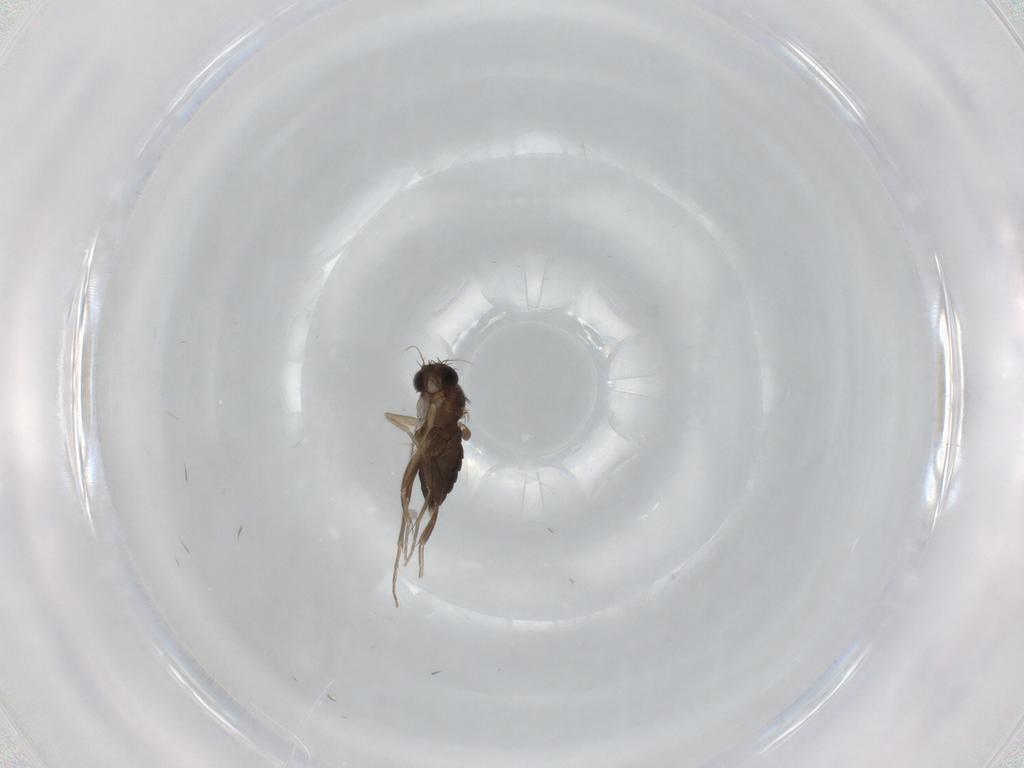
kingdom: Animalia
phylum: Arthropoda
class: Insecta
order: Diptera
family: Phoridae
